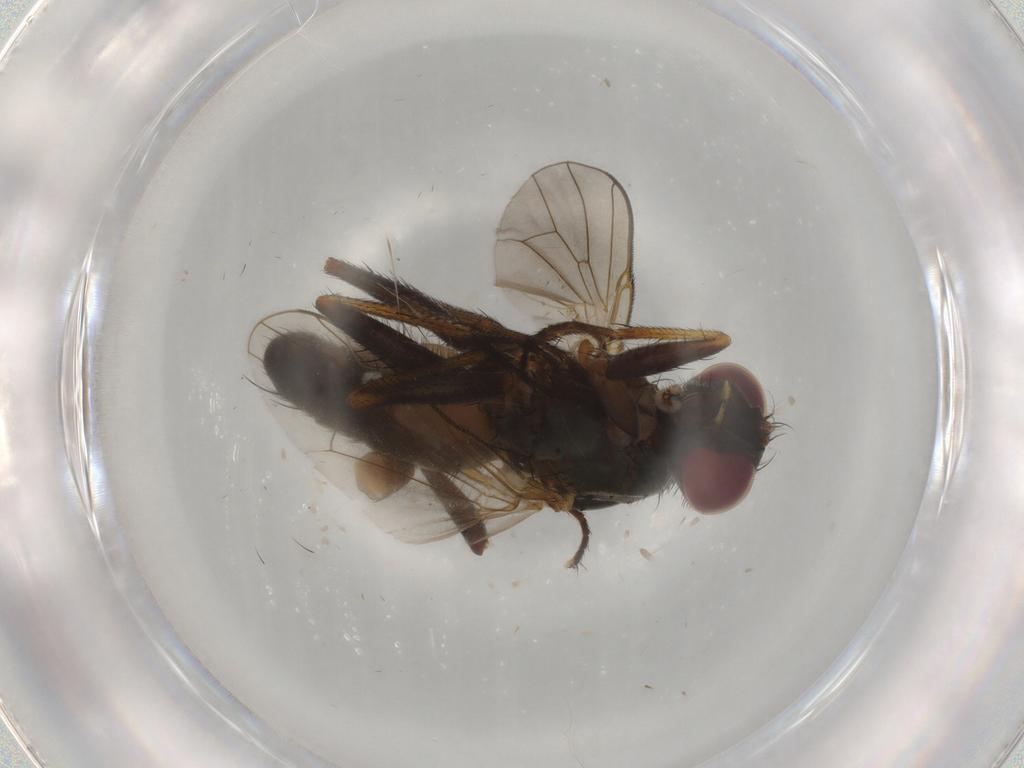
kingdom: Animalia
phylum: Arthropoda
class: Insecta
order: Diptera
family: Muscidae
